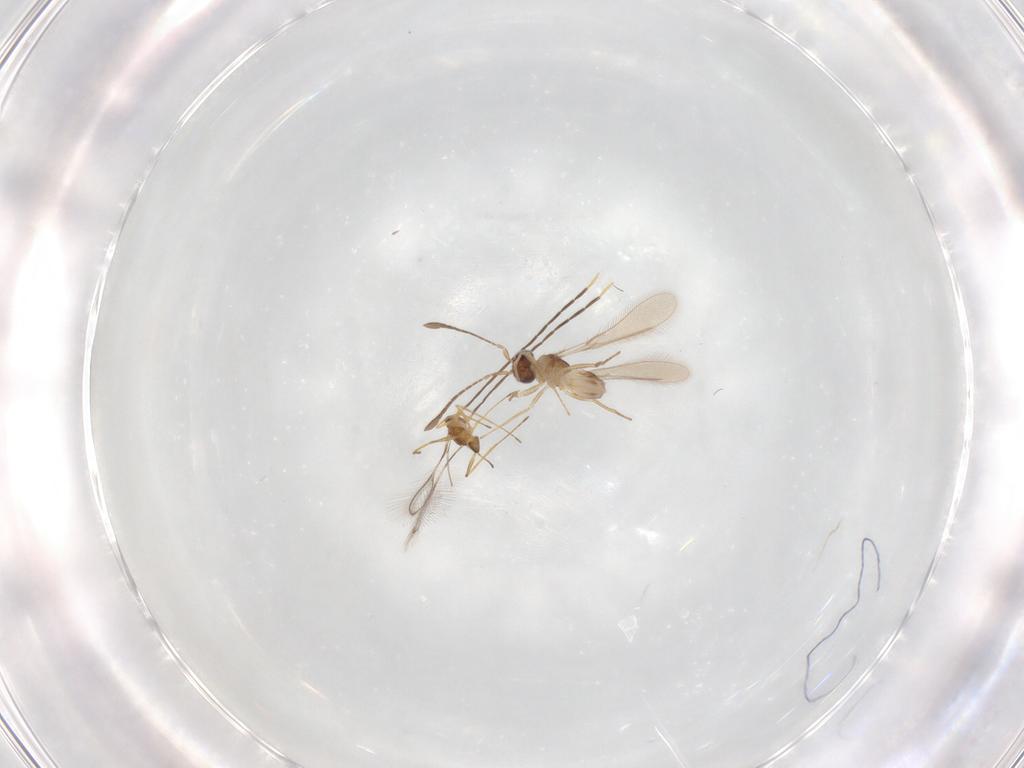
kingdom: Animalia
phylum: Arthropoda
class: Insecta
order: Hymenoptera
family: Mymaridae
